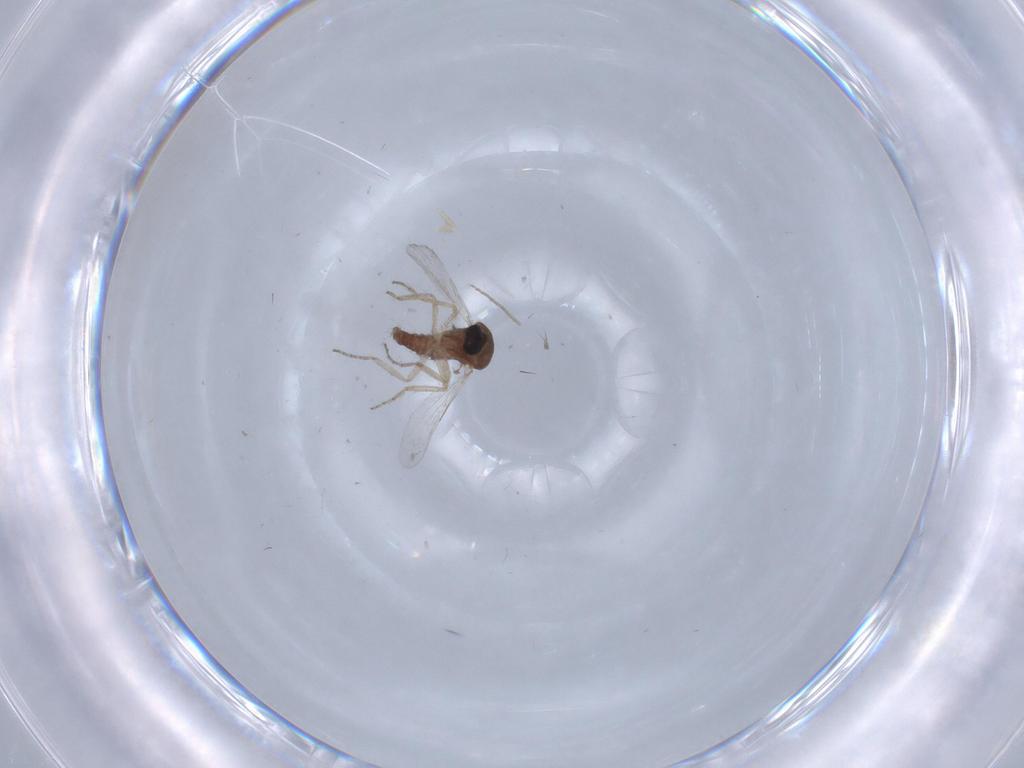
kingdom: Animalia
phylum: Arthropoda
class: Insecta
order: Diptera
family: Chironomidae
